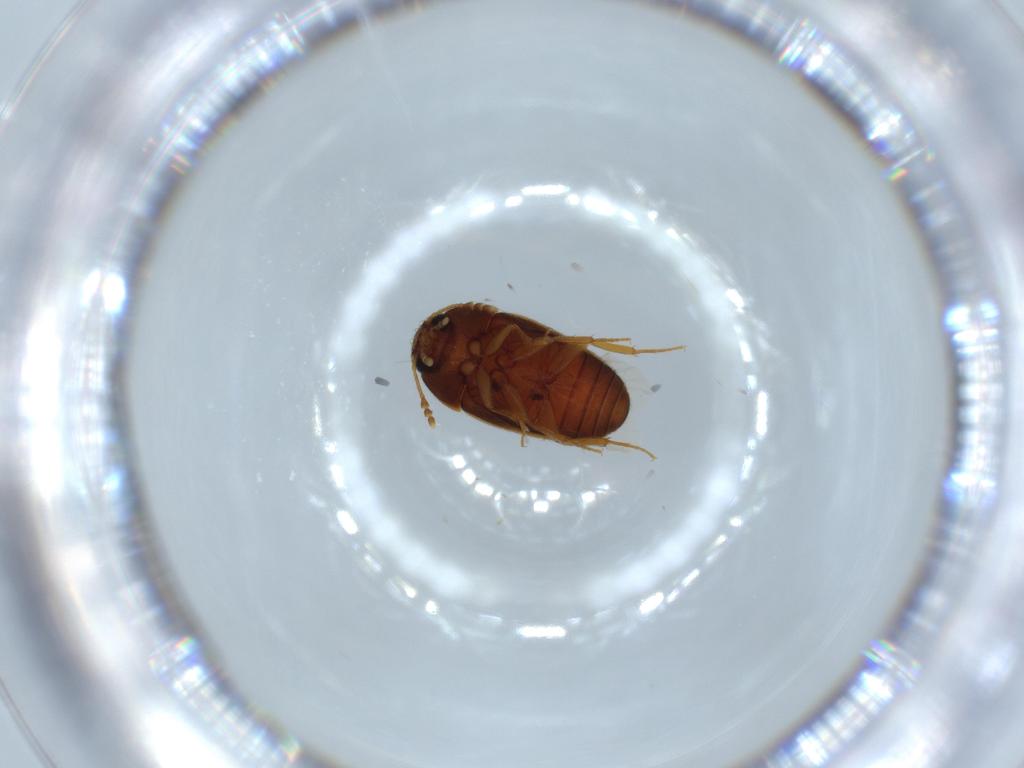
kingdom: Animalia
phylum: Arthropoda
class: Insecta
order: Coleoptera
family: Mycetophagidae
